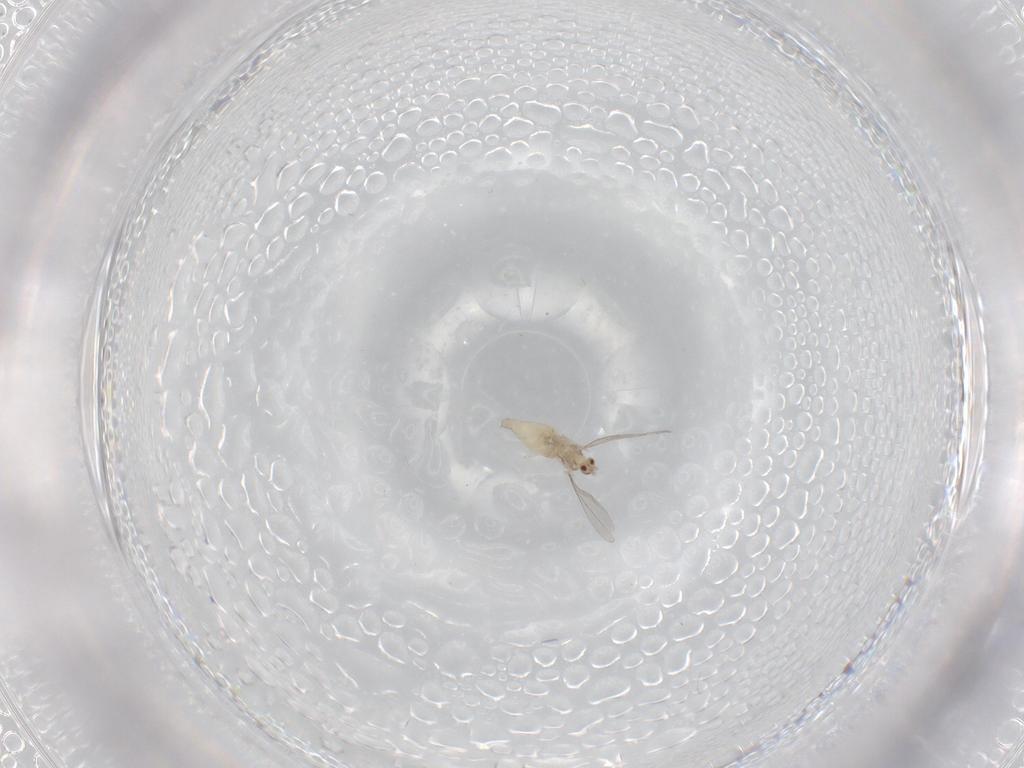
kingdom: Animalia
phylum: Arthropoda
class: Insecta
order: Diptera
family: Cecidomyiidae
